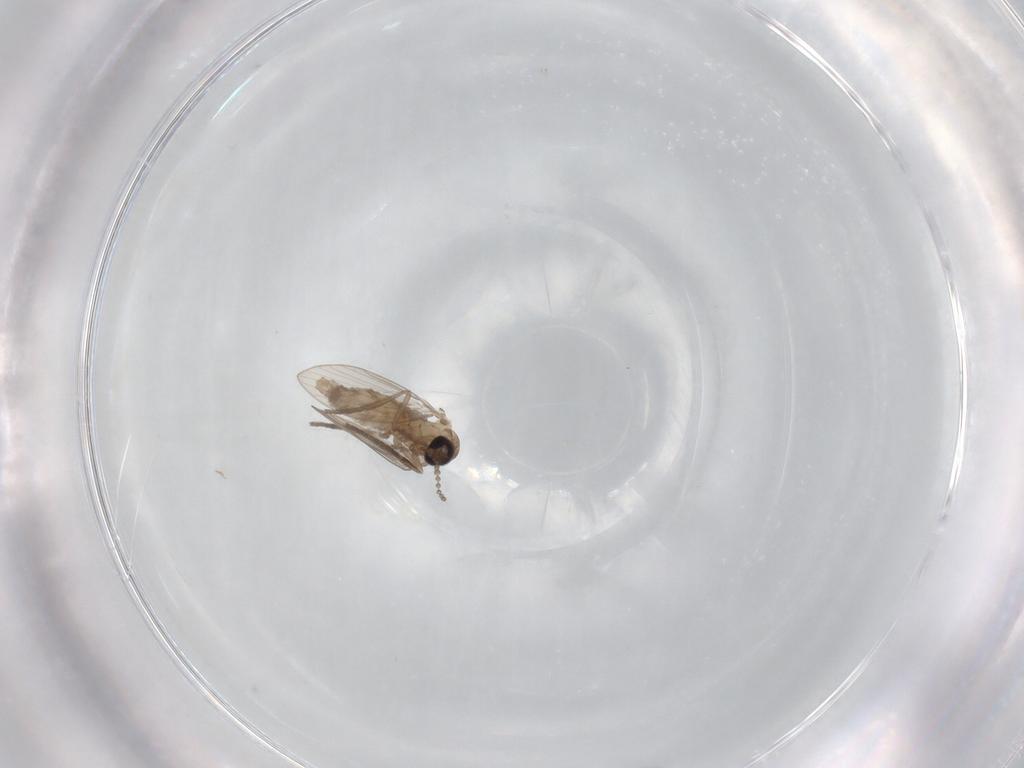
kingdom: Animalia
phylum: Arthropoda
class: Insecta
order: Diptera
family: Psychodidae
